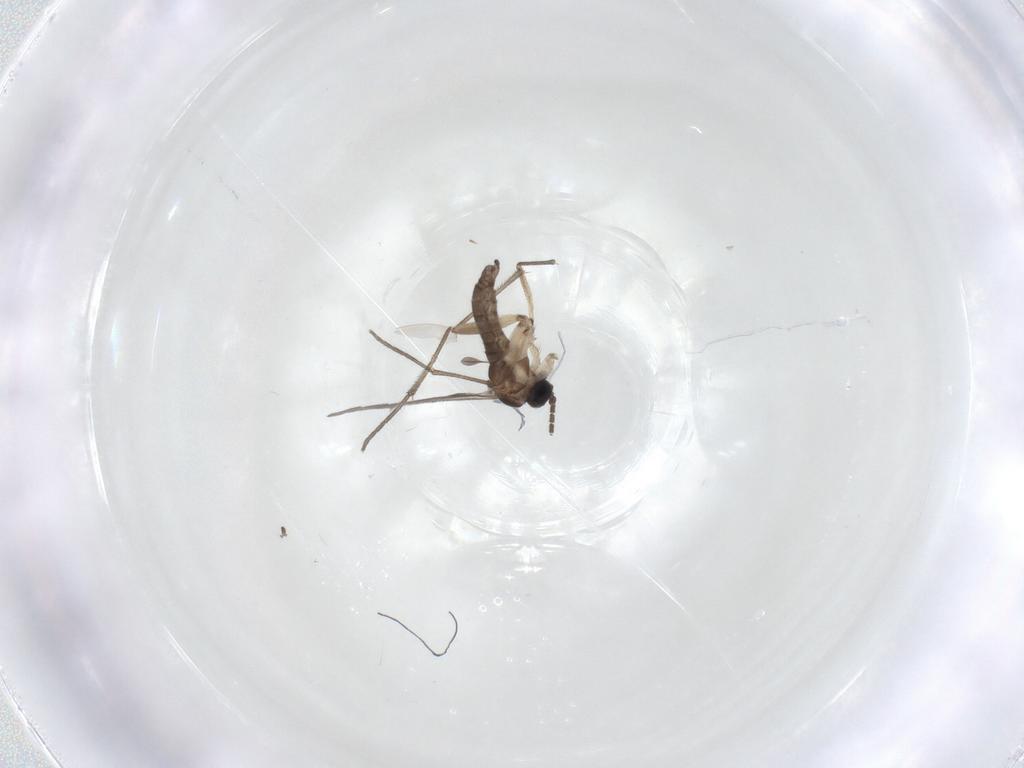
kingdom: Animalia
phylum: Arthropoda
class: Insecta
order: Diptera
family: Sciaridae
